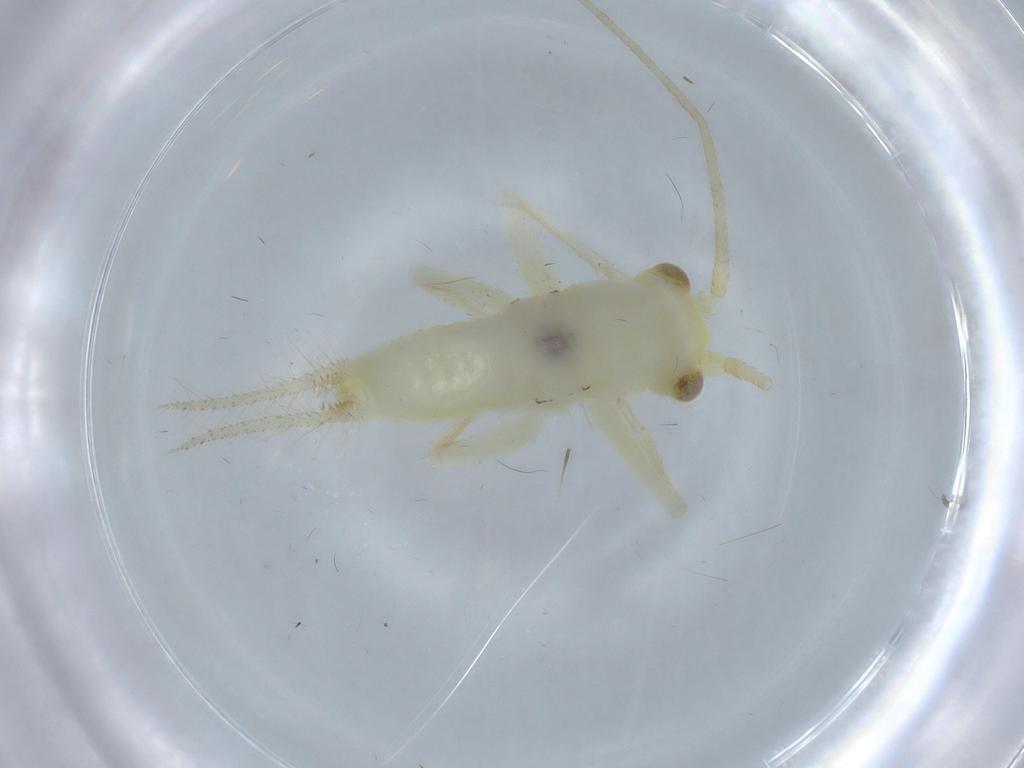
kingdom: Animalia
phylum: Arthropoda
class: Insecta
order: Orthoptera
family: Trigonidiidae
